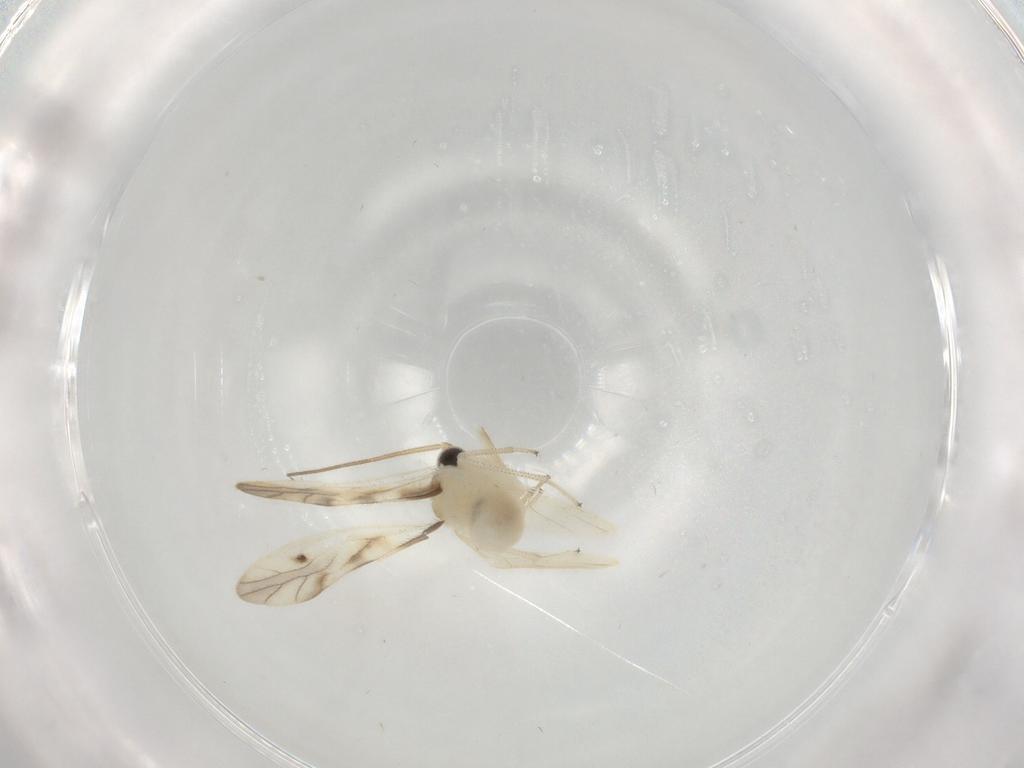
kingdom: Animalia
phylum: Arthropoda
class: Insecta
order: Psocodea
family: Caeciliusidae
